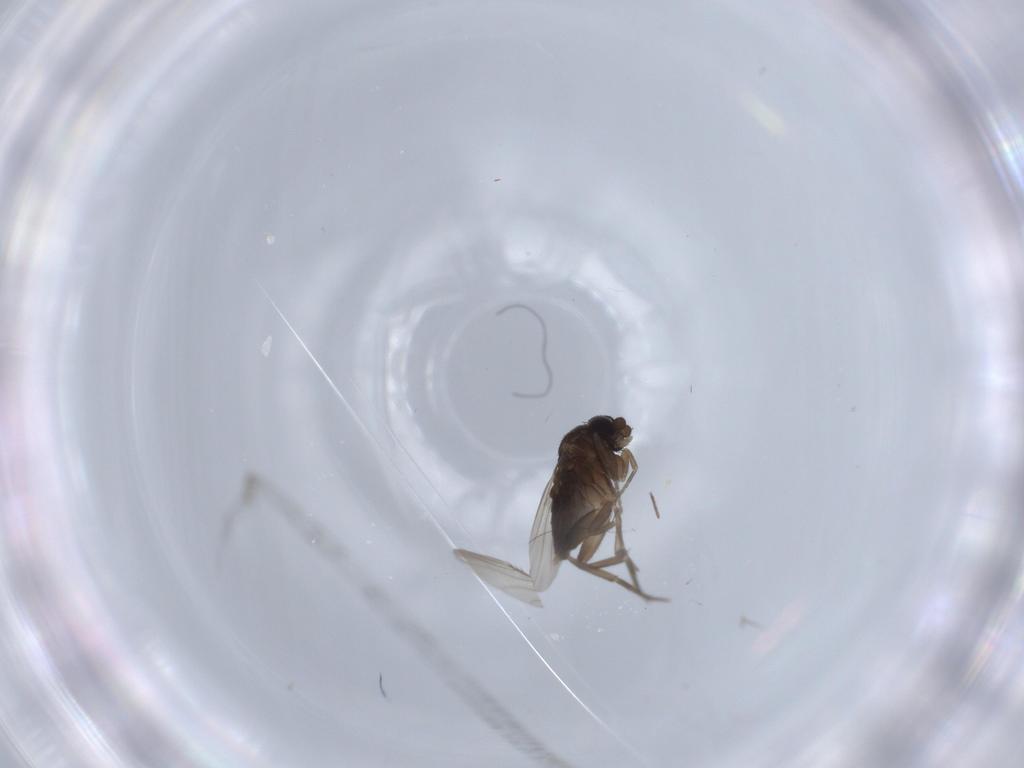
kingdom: Animalia
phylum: Arthropoda
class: Insecta
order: Diptera
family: Phoridae
